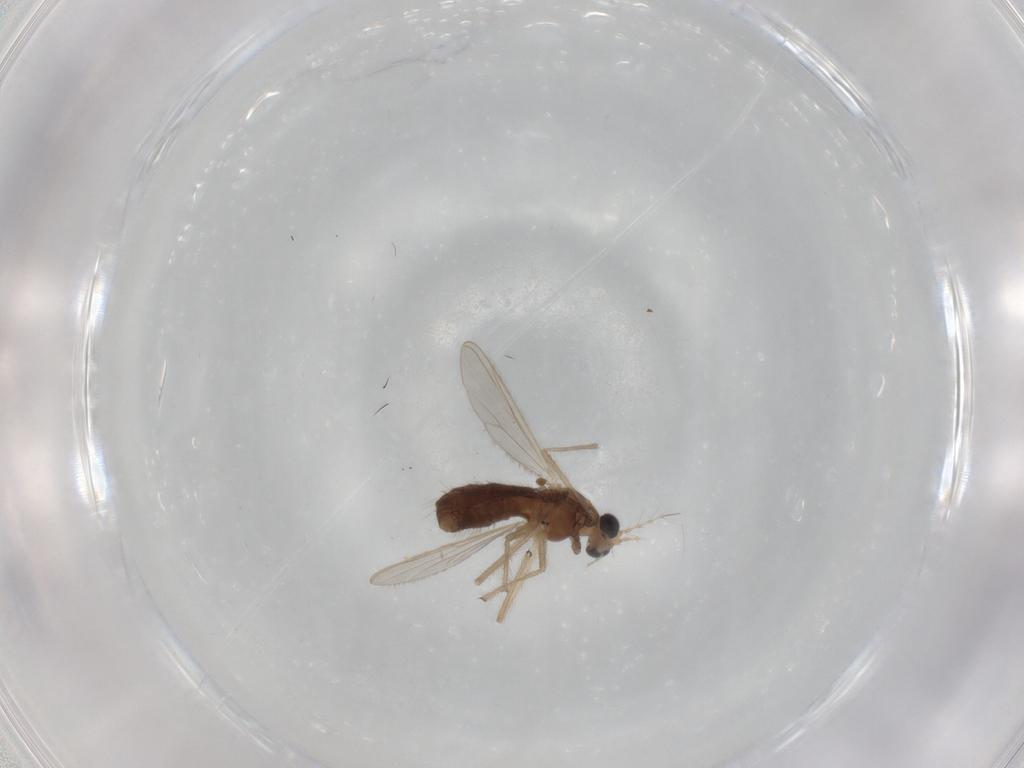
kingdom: Animalia
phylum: Arthropoda
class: Insecta
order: Diptera
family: Chironomidae
